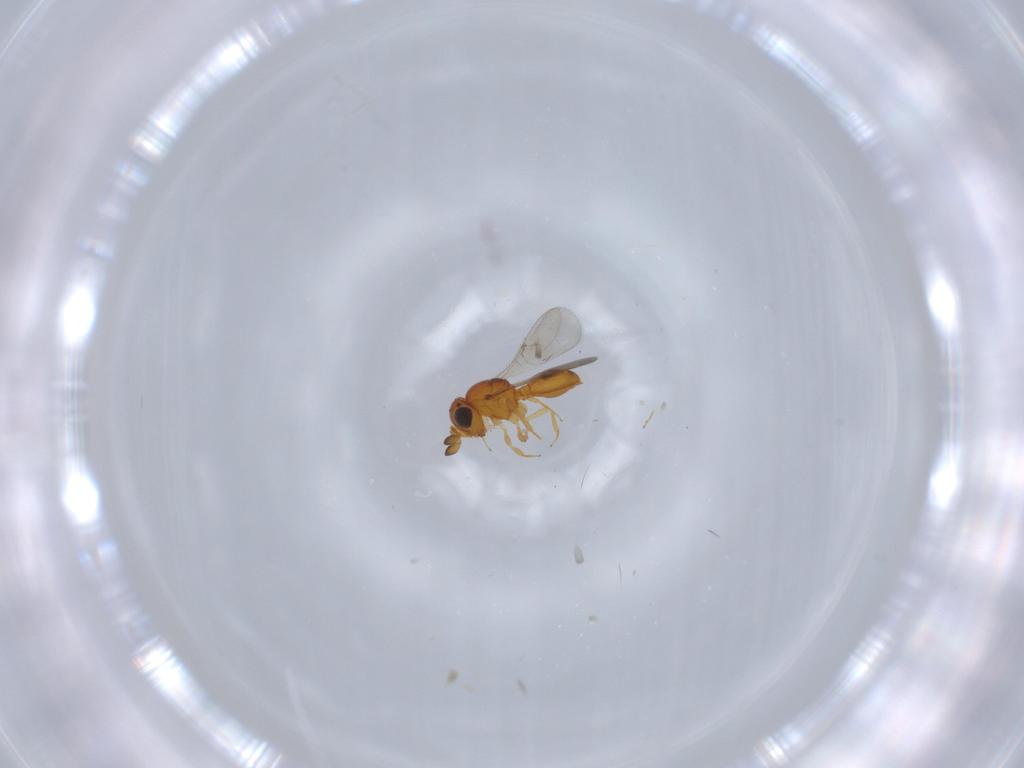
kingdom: Animalia
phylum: Arthropoda
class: Insecta
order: Hymenoptera
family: Scelionidae
